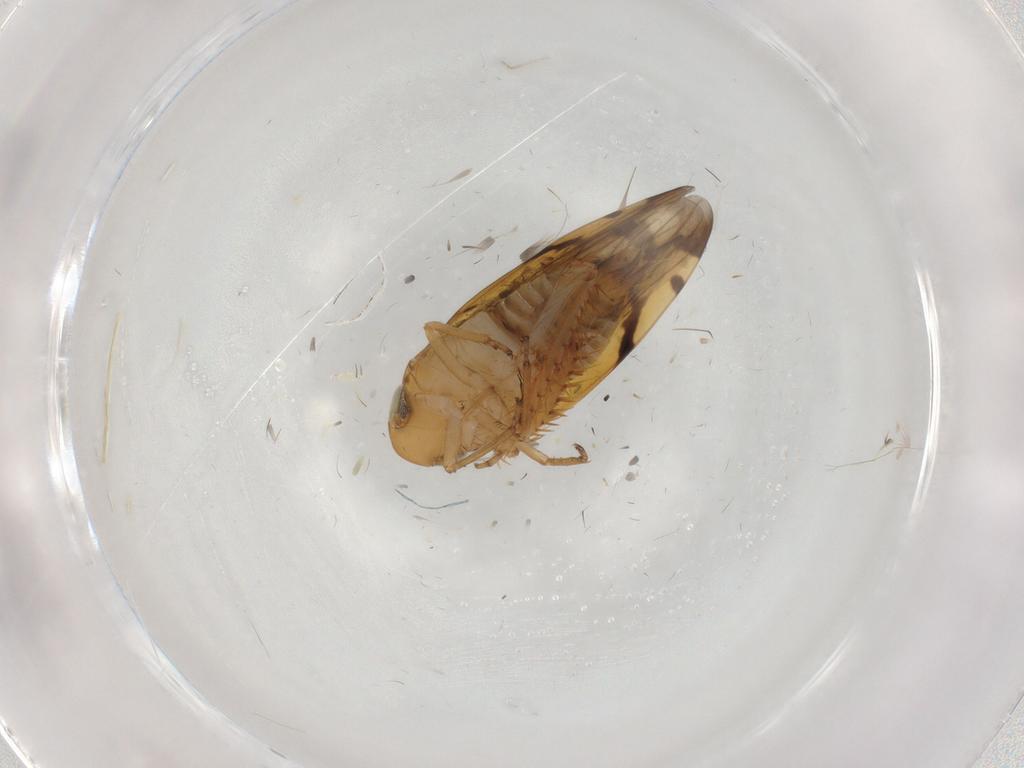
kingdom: Animalia
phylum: Arthropoda
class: Insecta
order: Hemiptera
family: Cicadellidae
